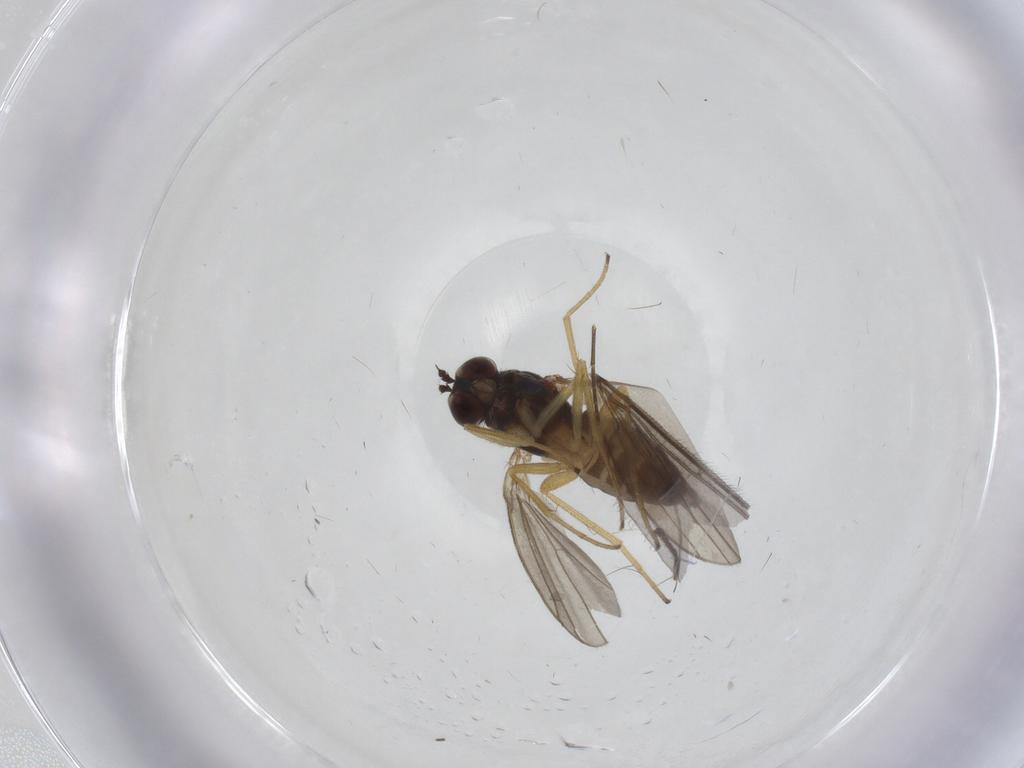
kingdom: Animalia
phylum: Arthropoda
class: Insecta
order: Diptera
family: Dolichopodidae
